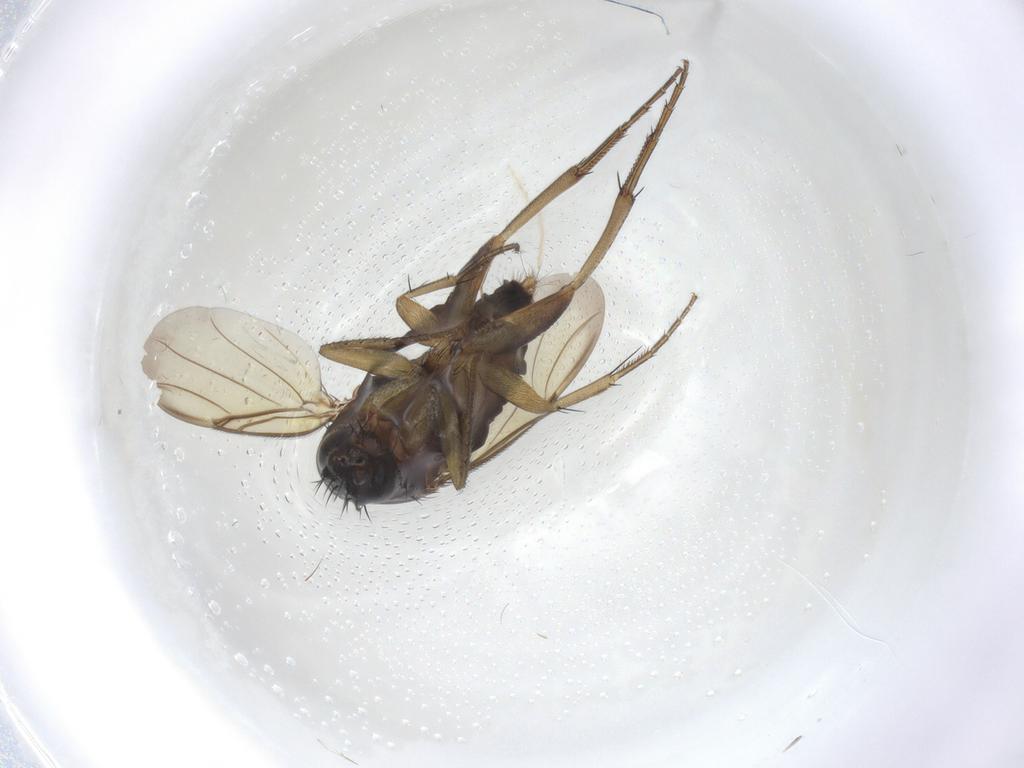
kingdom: Animalia
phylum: Arthropoda
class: Insecta
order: Diptera
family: Chironomidae
